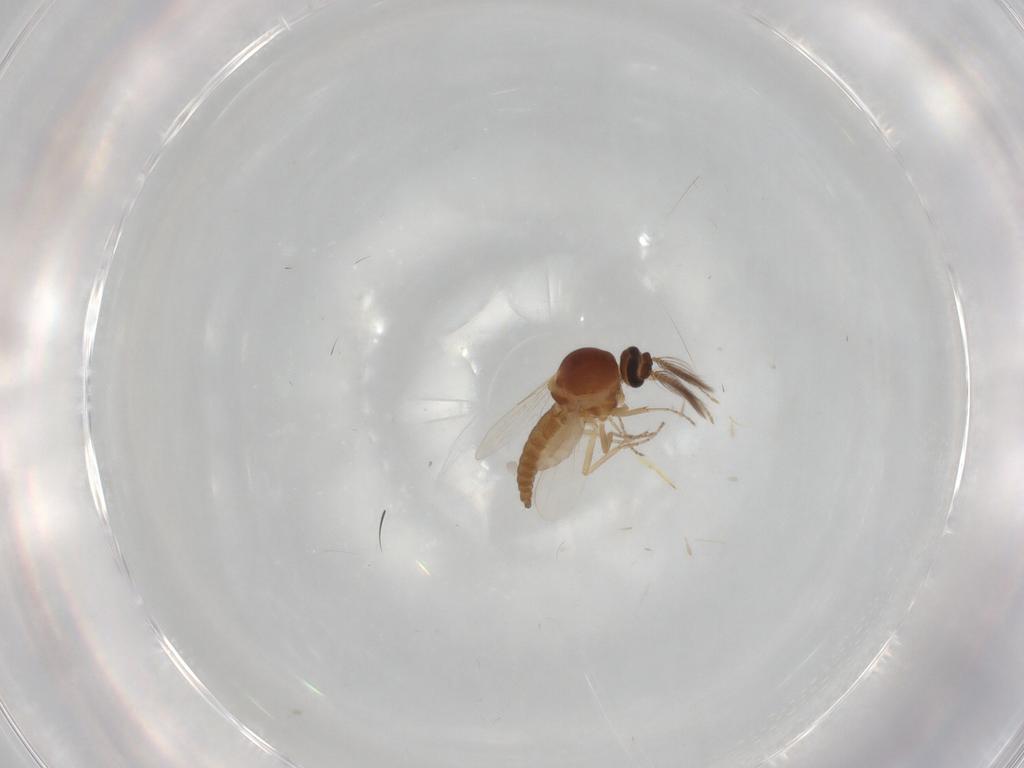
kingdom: Animalia
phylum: Arthropoda
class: Insecta
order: Diptera
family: Ceratopogonidae
